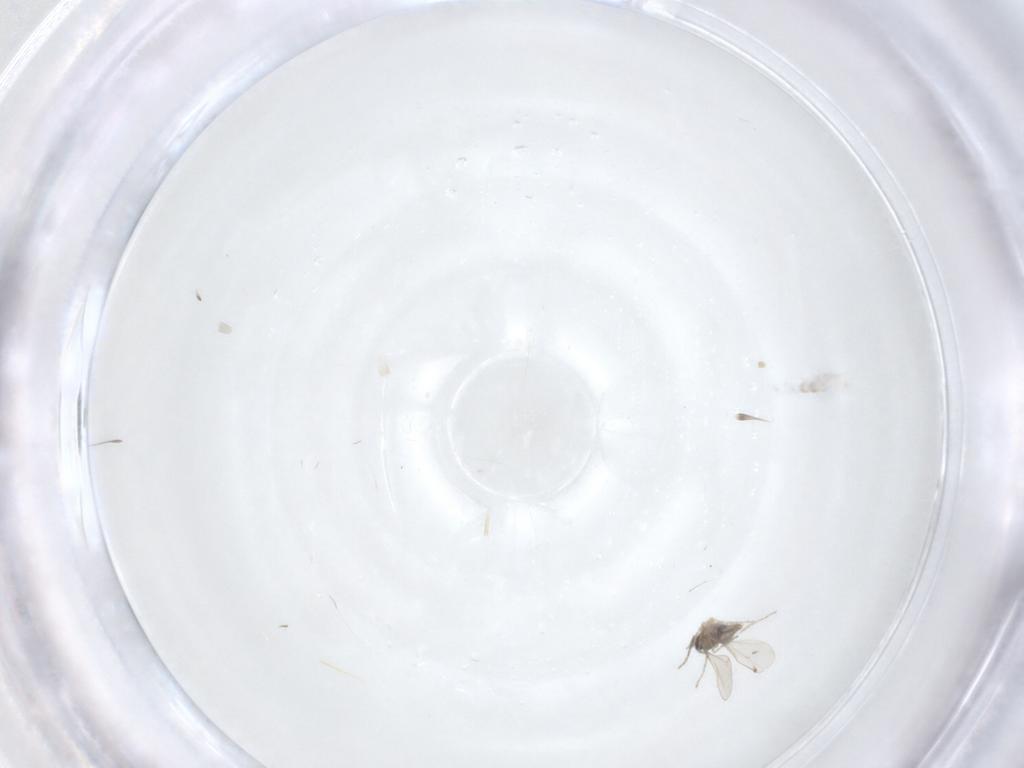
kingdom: Animalia
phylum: Arthropoda
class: Insecta
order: Diptera
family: Cecidomyiidae
